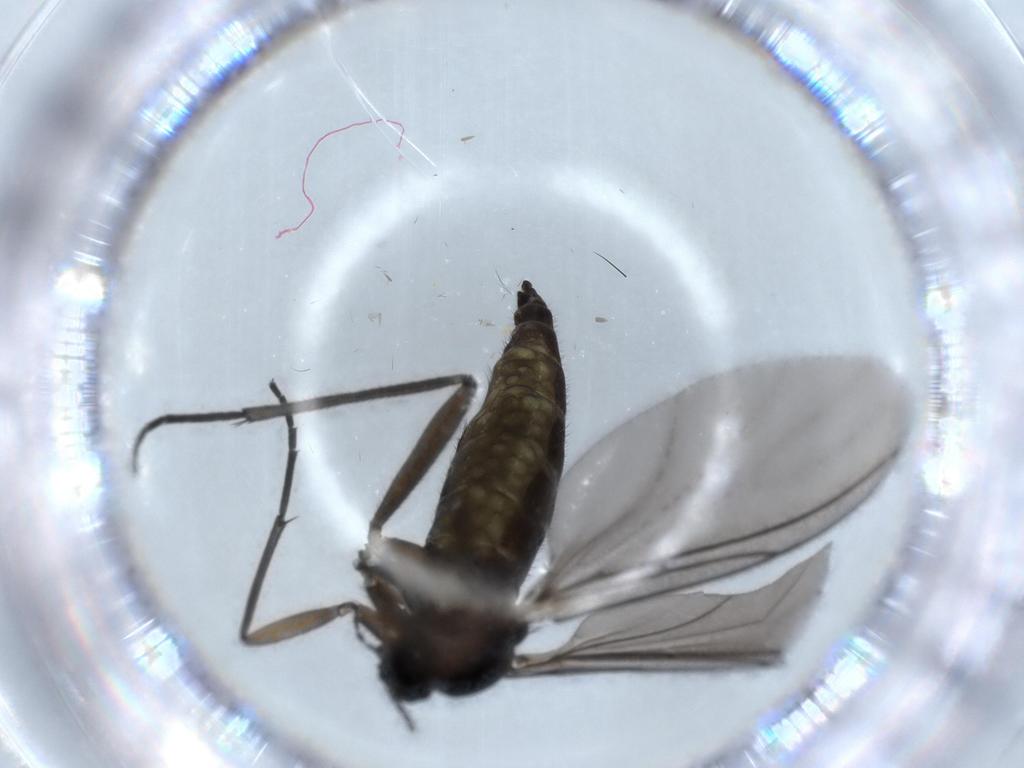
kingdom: Animalia
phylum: Arthropoda
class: Insecta
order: Diptera
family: Sciaridae
